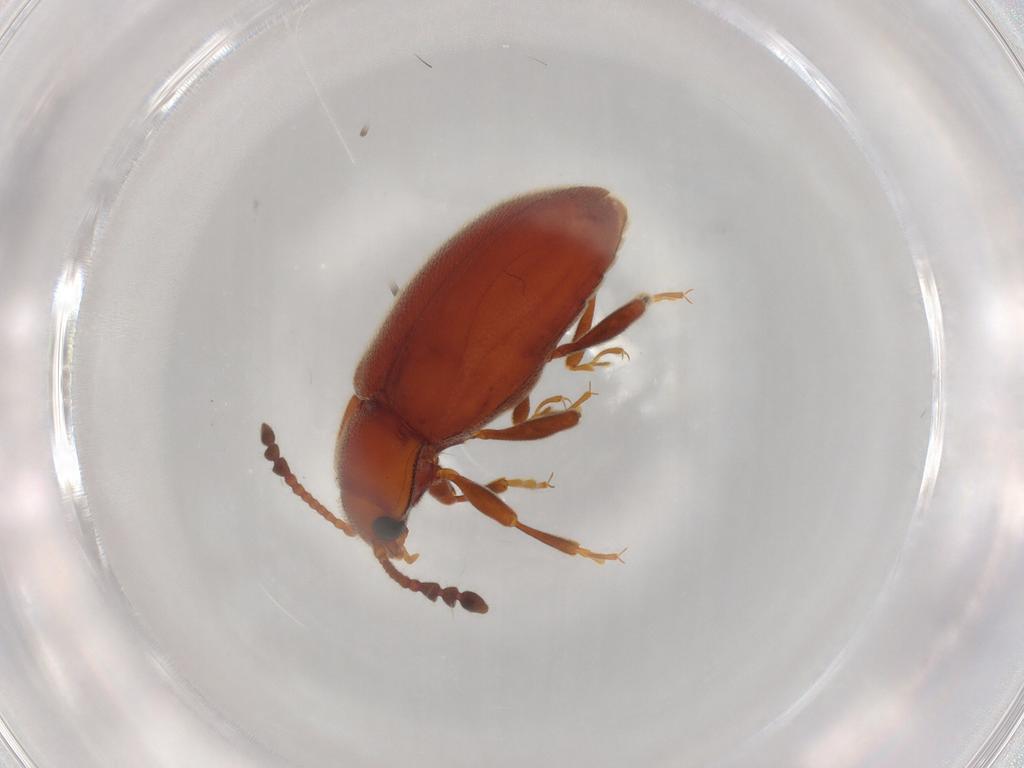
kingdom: Animalia
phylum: Arthropoda
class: Insecta
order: Coleoptera
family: Endomychidae
